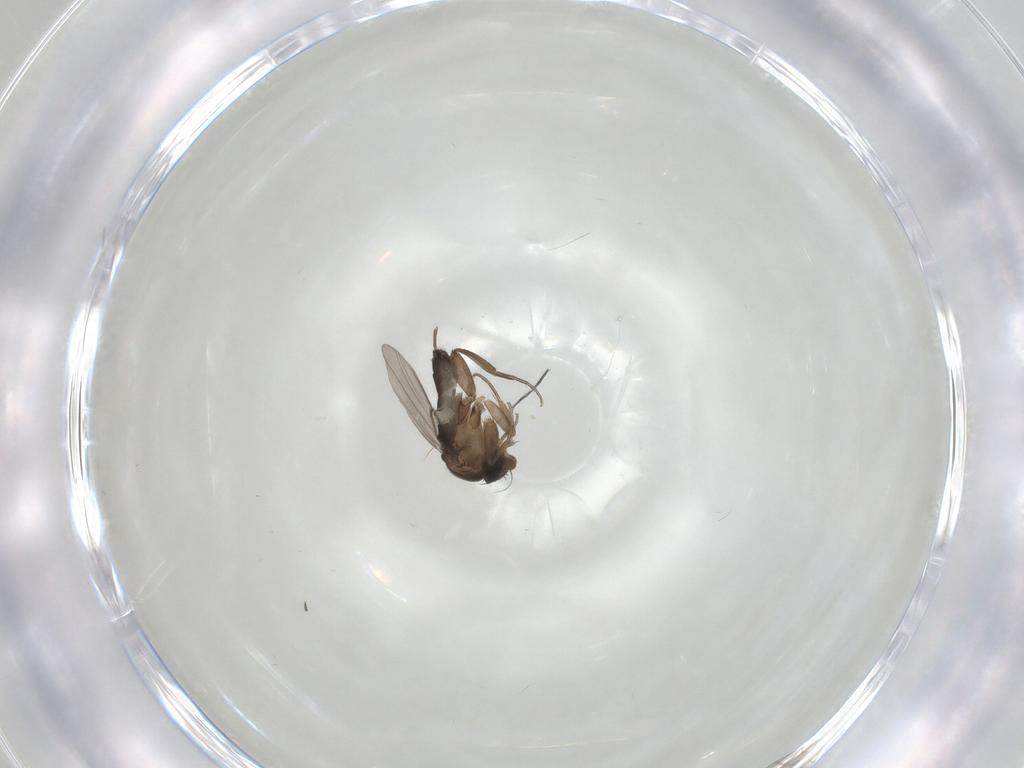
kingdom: Animalia
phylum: Arthropoda
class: Insecta
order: Diptera
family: Phoridae
